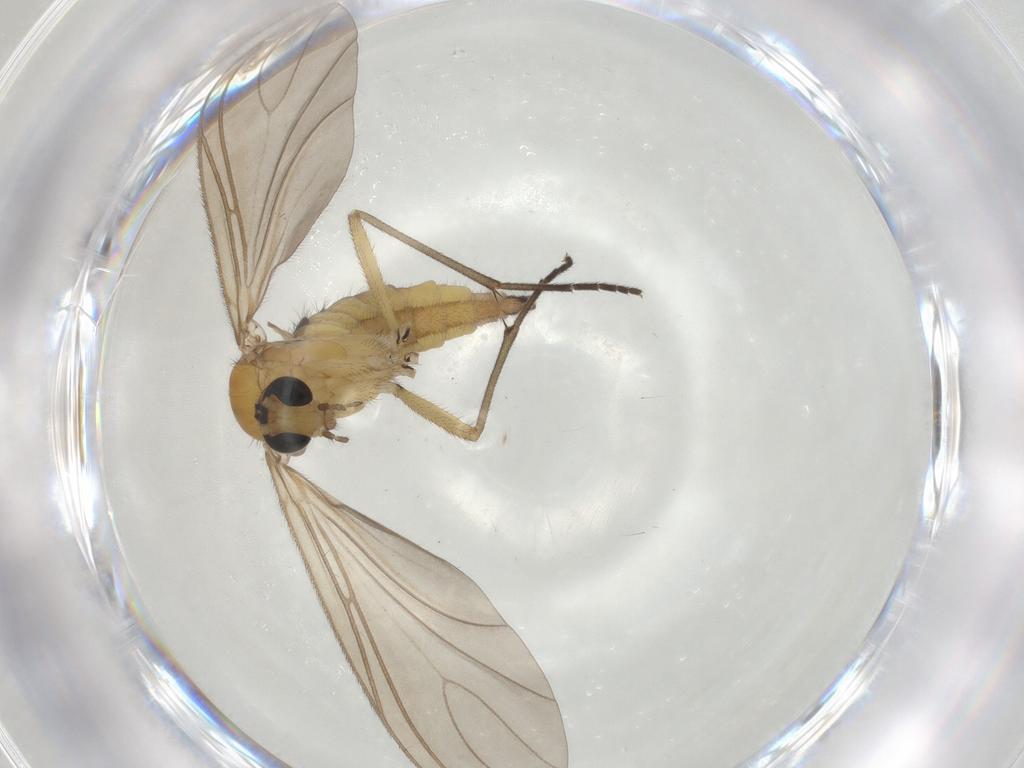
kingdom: Animalia
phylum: Arthropoda
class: Insecta
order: Diptera
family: Sciaridae
